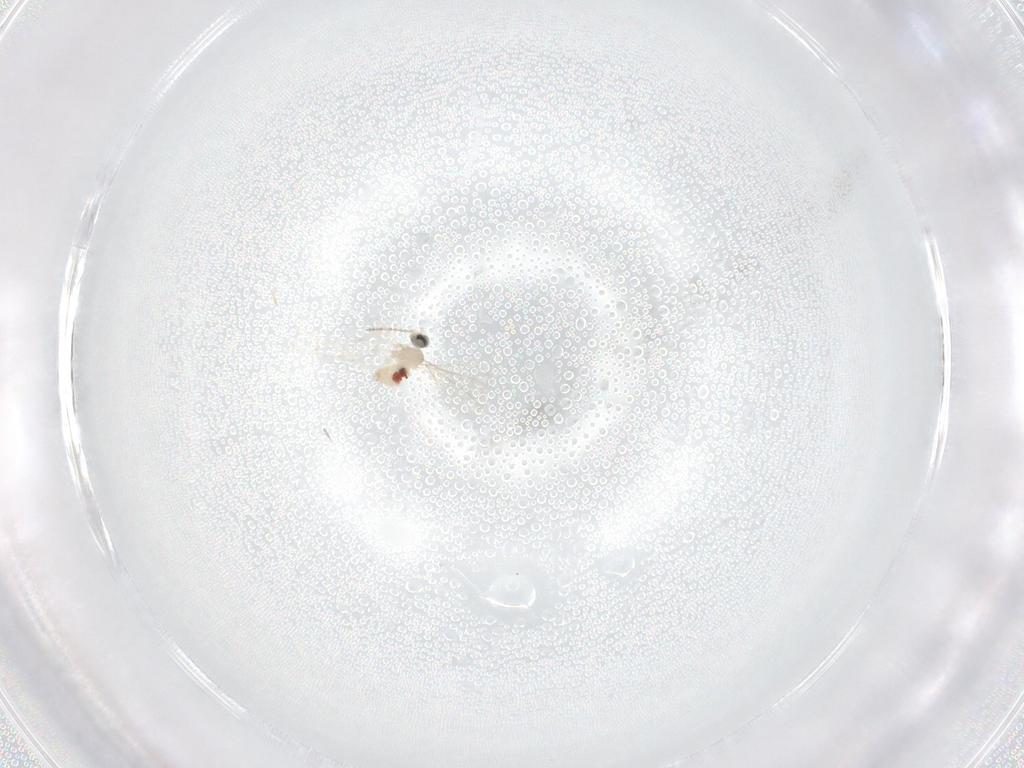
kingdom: Animalia
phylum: Arthropoda
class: Insecta
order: Diptera
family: Cecidomyiidae
